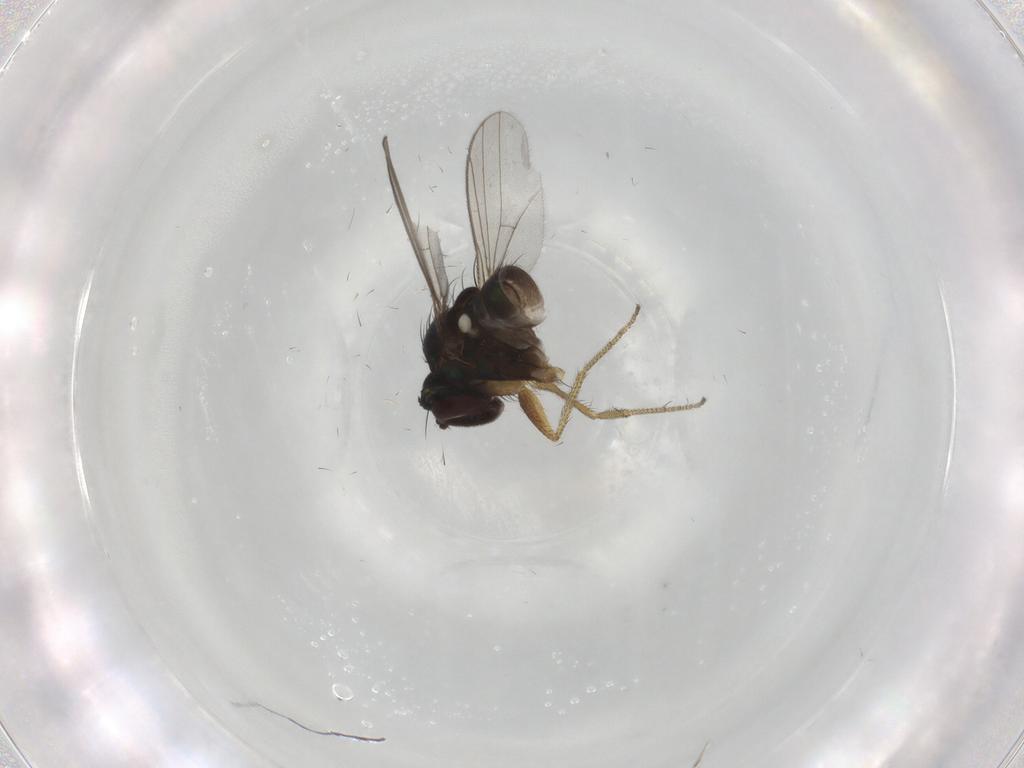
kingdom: Animalia
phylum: Arthropoda
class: Insecta
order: Diptera
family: Dolichopodidae
